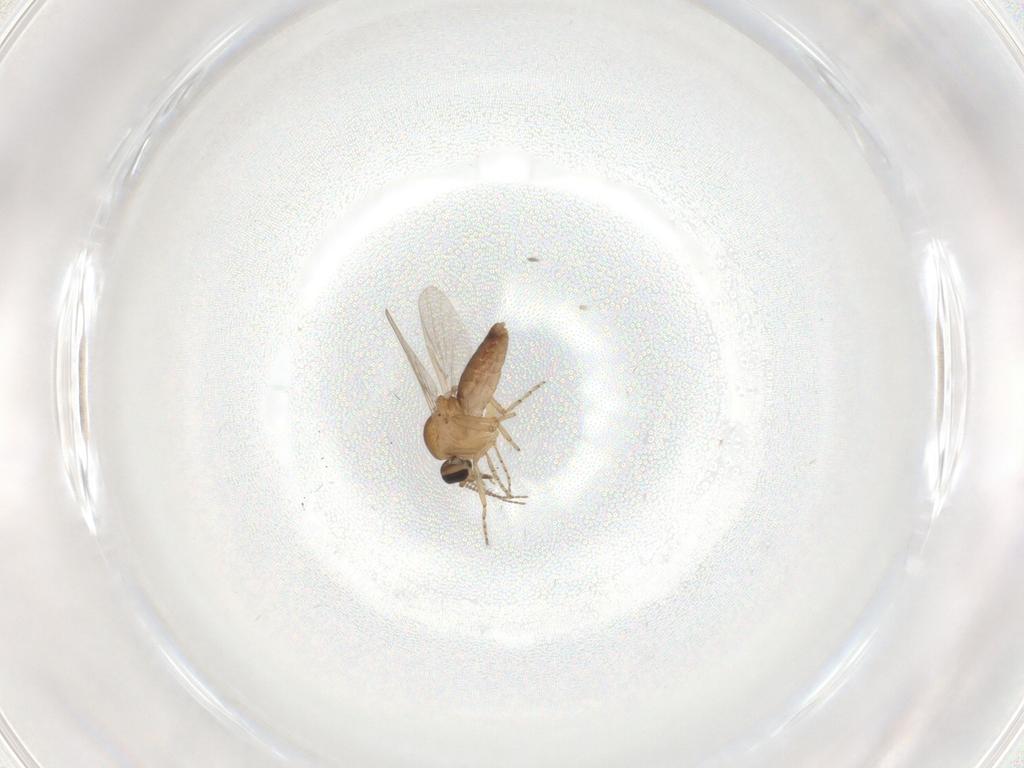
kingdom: Animalia
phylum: Arthropoda
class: Insecta
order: Diptera
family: Ceratopogonidae
